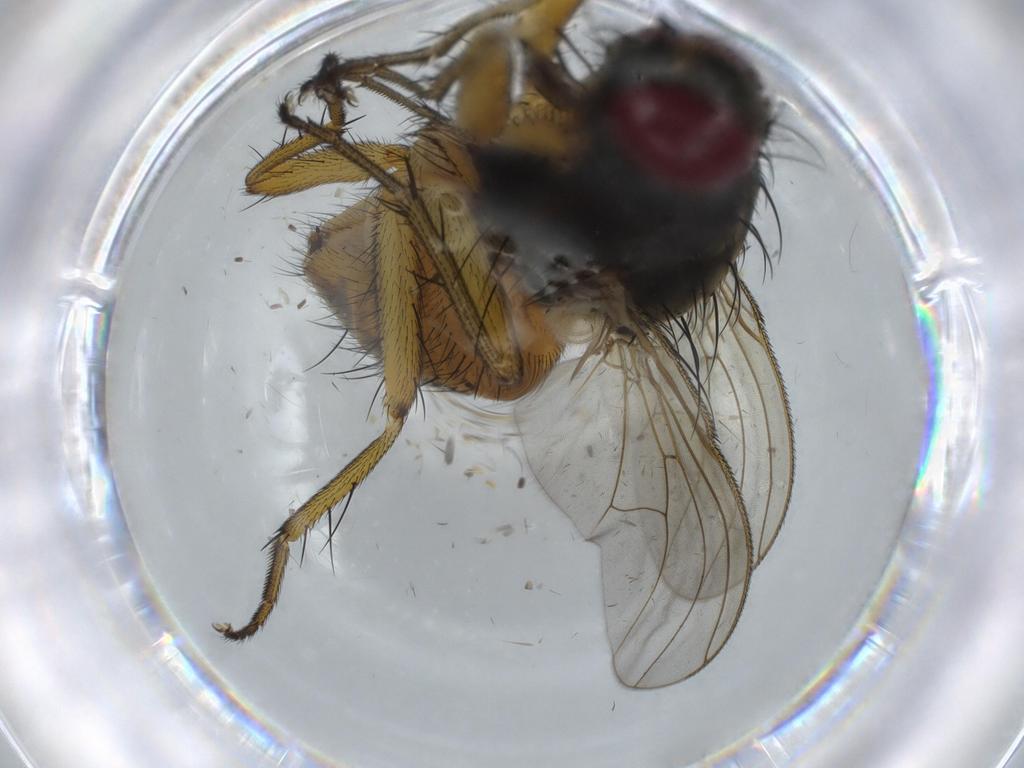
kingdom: Animalia
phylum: Arthropoda
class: Insecta
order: Diptera
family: Muscidae
